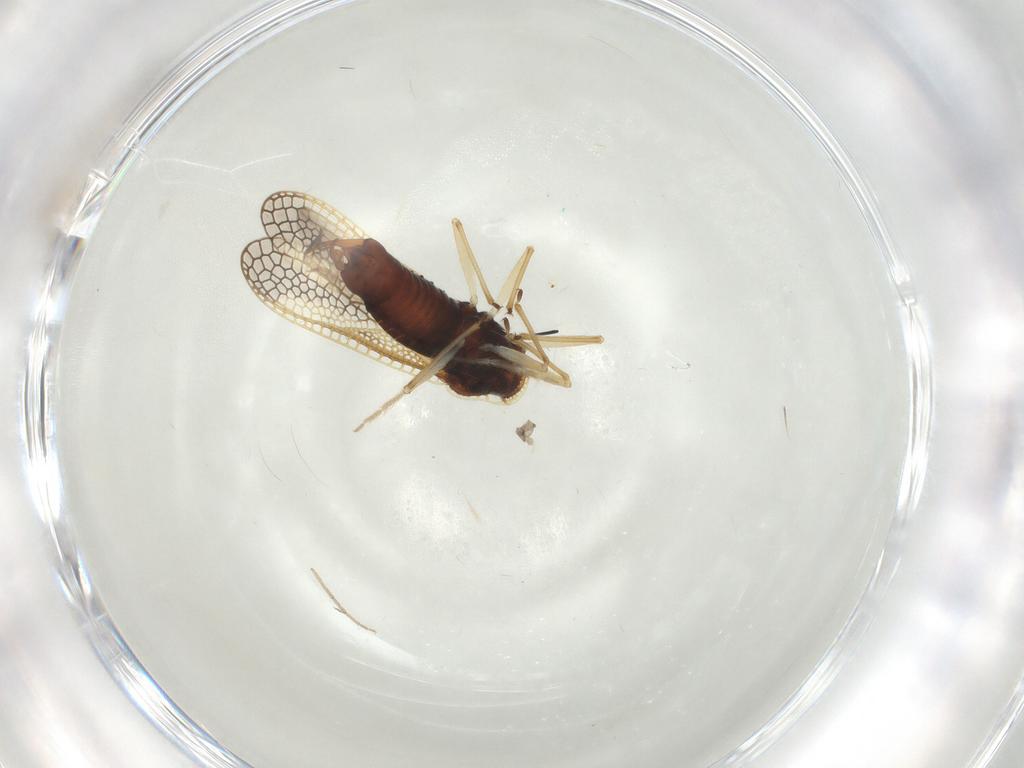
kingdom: Animalia
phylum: Arthropoda
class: Insecta
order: Hemiptera
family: Tingidae
